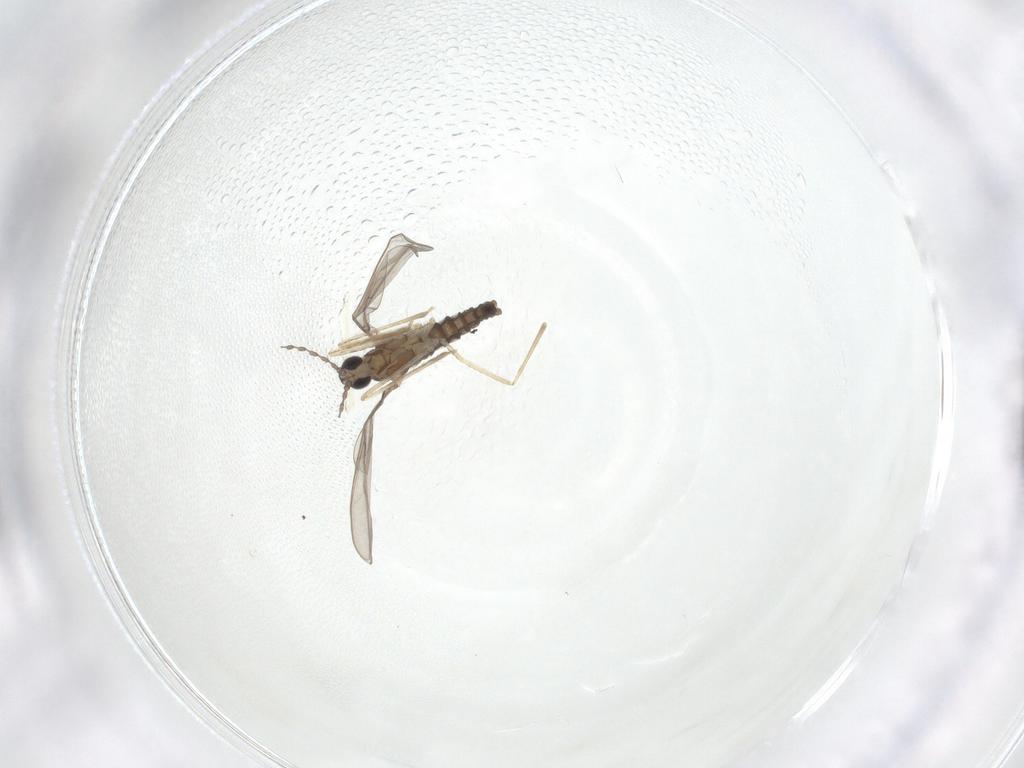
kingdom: Animalia
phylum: Arthropoda
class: Insecta
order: Diptera
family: Cecidomyiidae
